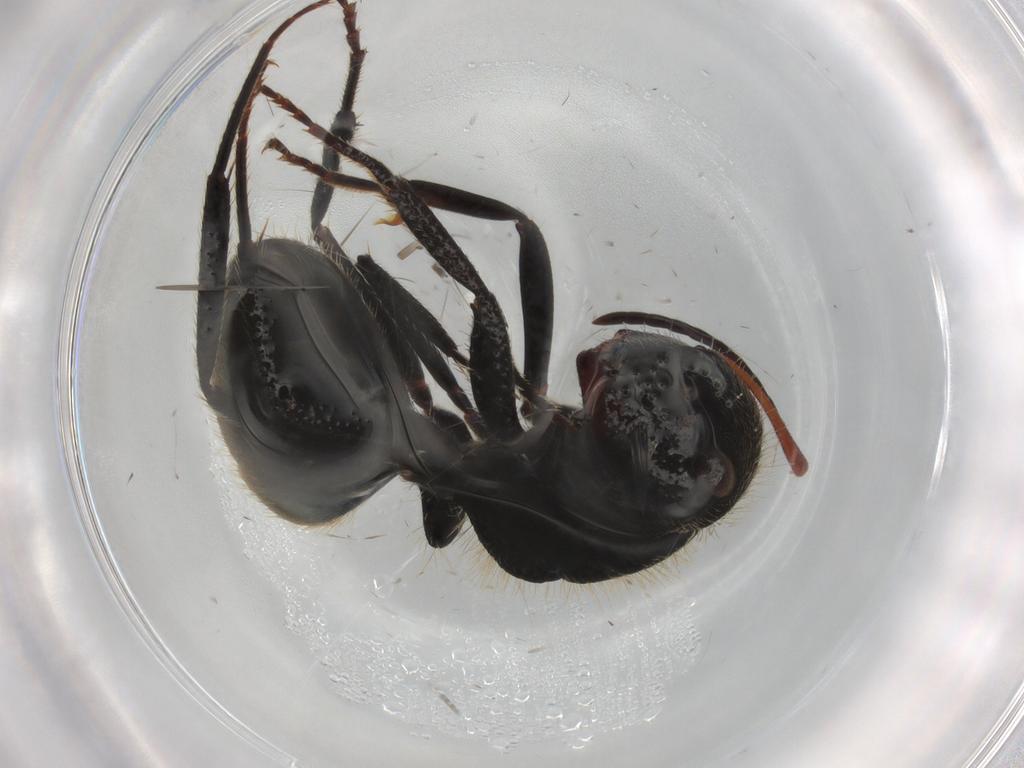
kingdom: Animalia
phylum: Arthropoda
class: Insecta
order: Hymenoptera
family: Formicidae
